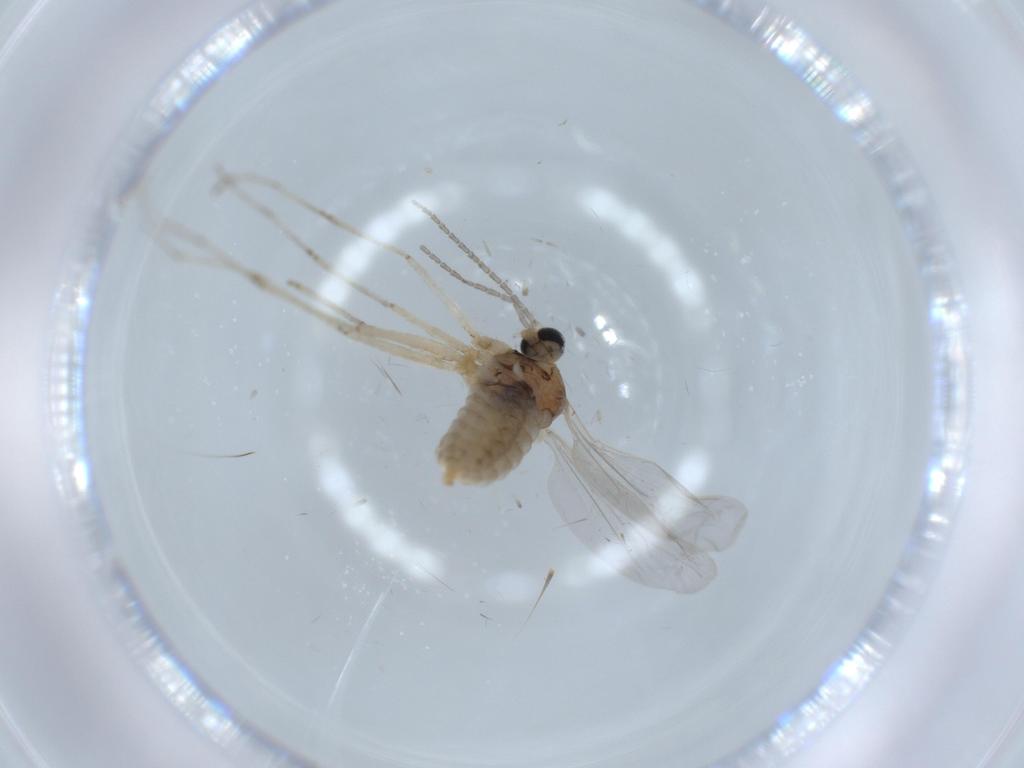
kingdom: Animalia
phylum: Arthropoda
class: Insecta
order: Diptera
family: Cecidomyiidae
